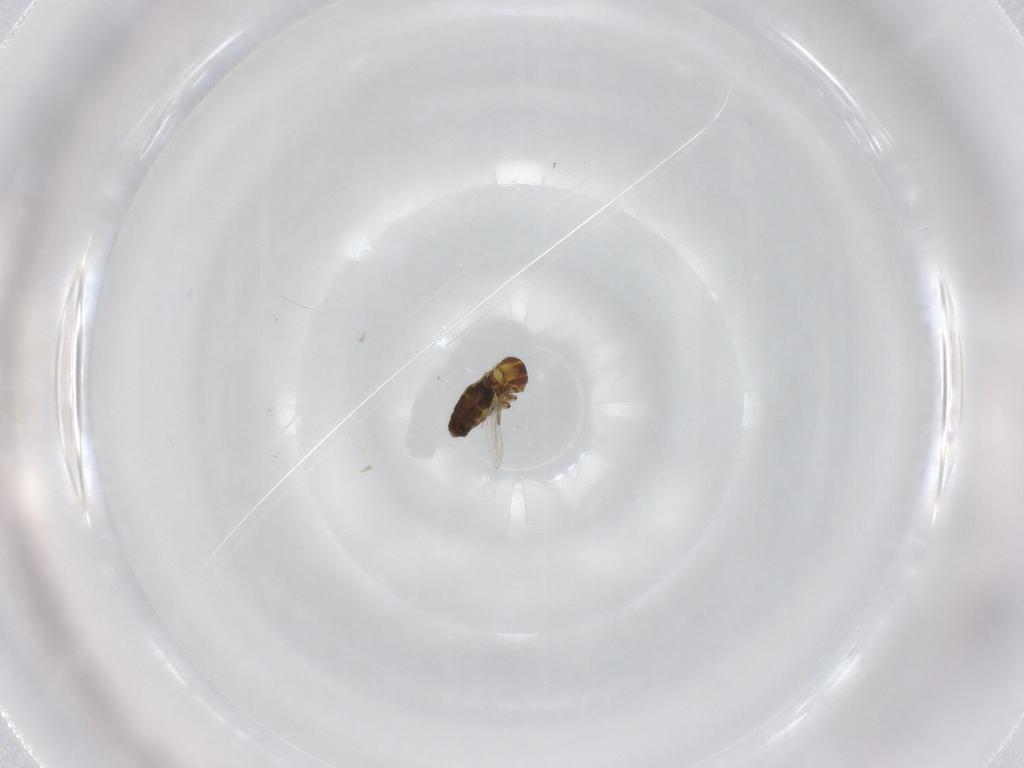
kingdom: Animalia
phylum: Arthropoda
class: Insecta
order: Diptera
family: Ceratopogonidae
